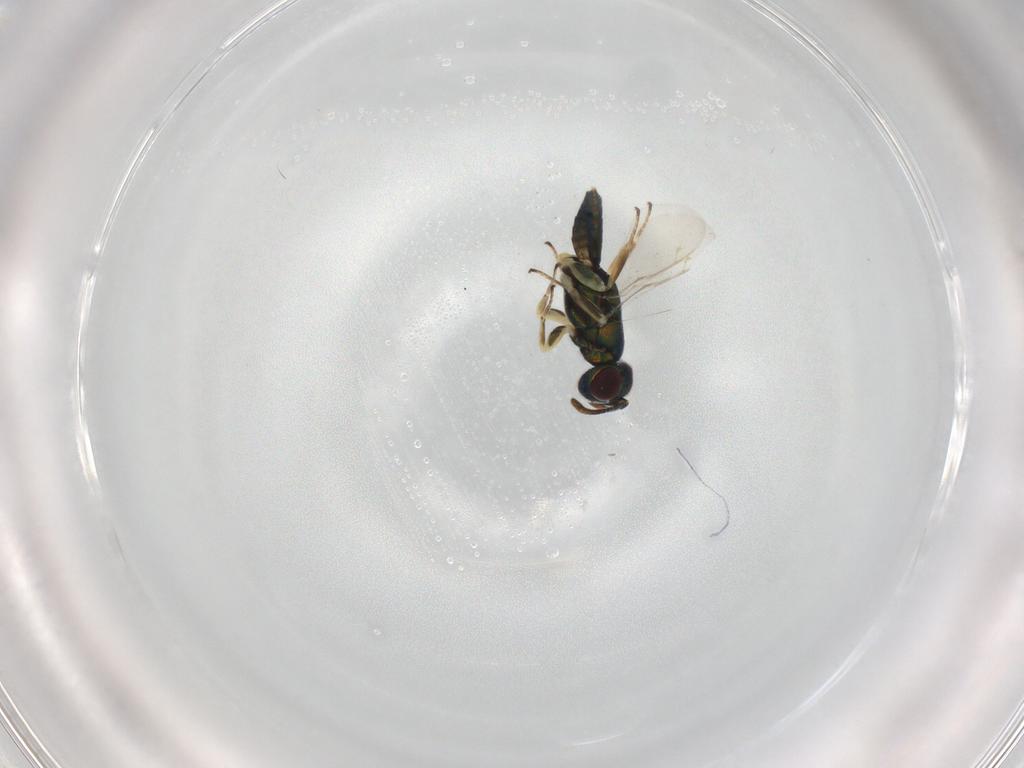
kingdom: Animalia
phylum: Arthropoda
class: Insecta
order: Hymenoptera
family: Eupelmidae
